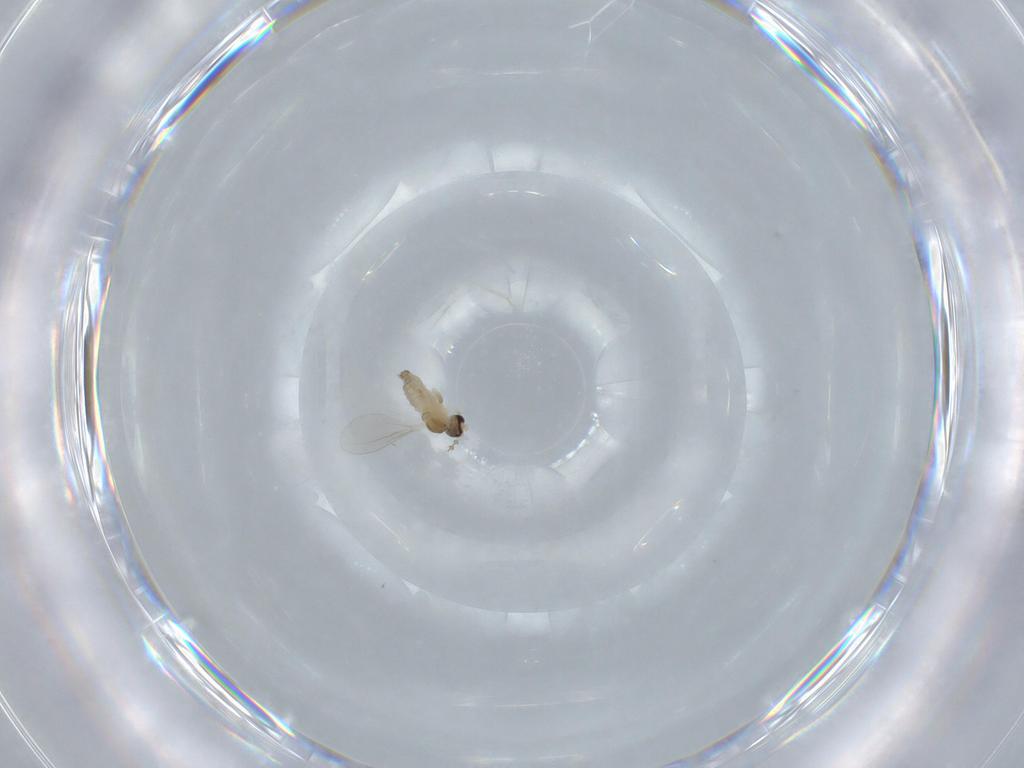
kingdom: Animalia
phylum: Arthropoda
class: Insecta
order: Diptera
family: Cecidomyiidae
